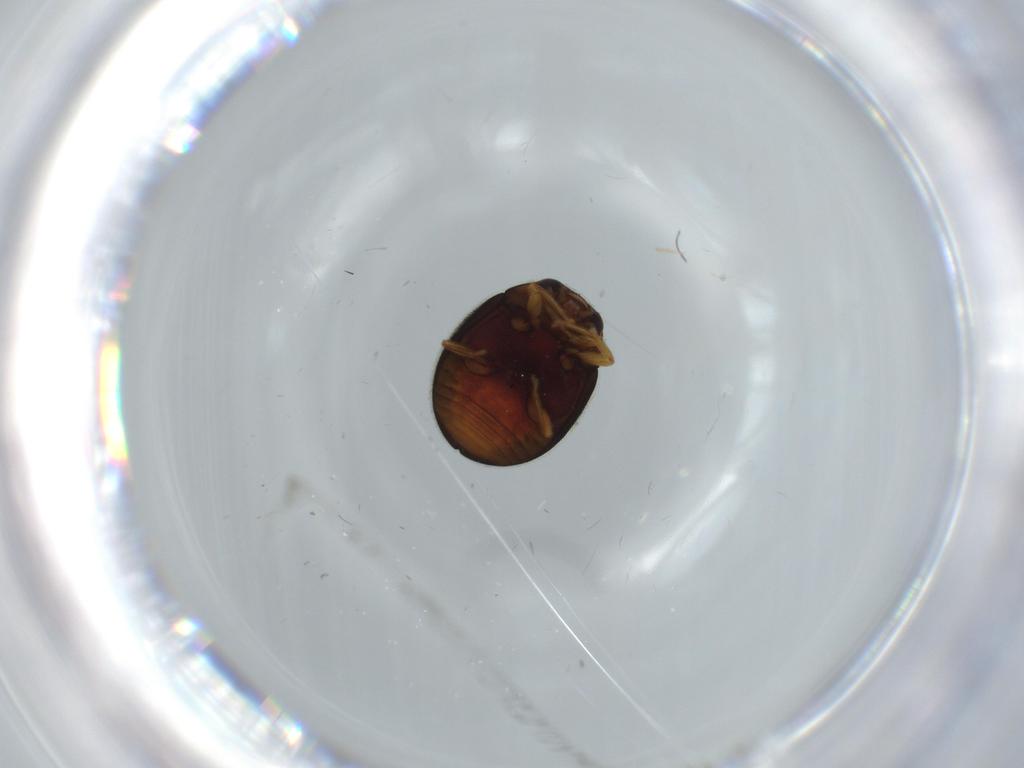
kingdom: Animalia
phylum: Arthropoda
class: Insecta
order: Coleoptera
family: Coccinellidae
